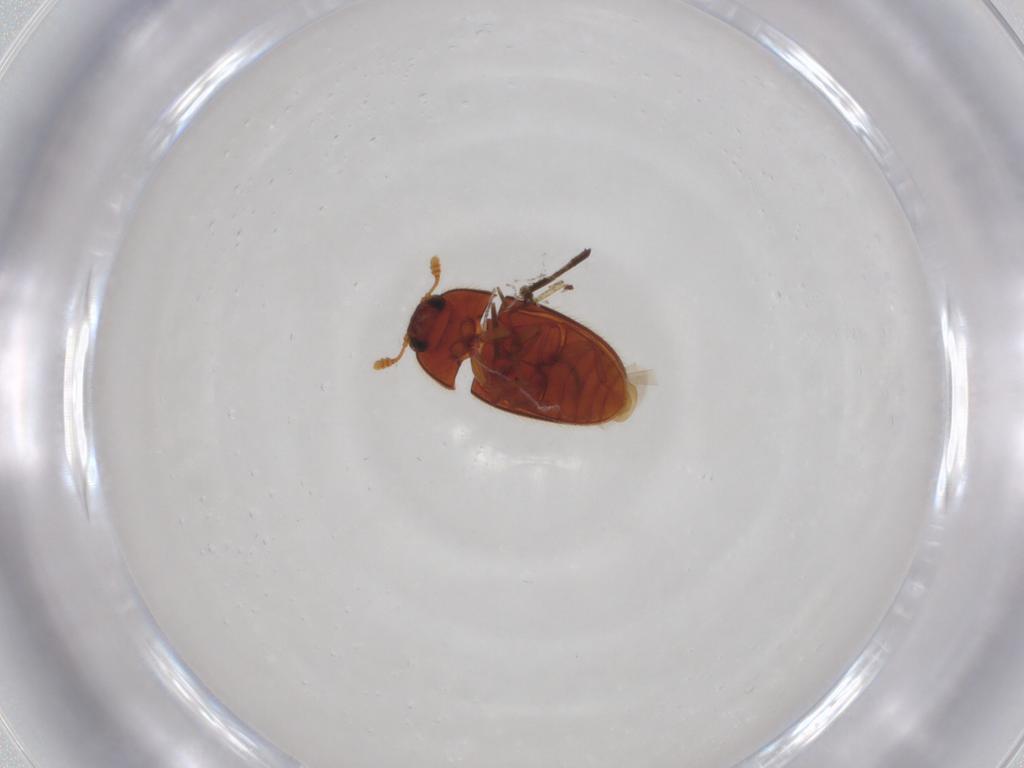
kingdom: Animalia
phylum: Arthropoda
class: Insecta
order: Coleoptera
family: Biphyllidae
